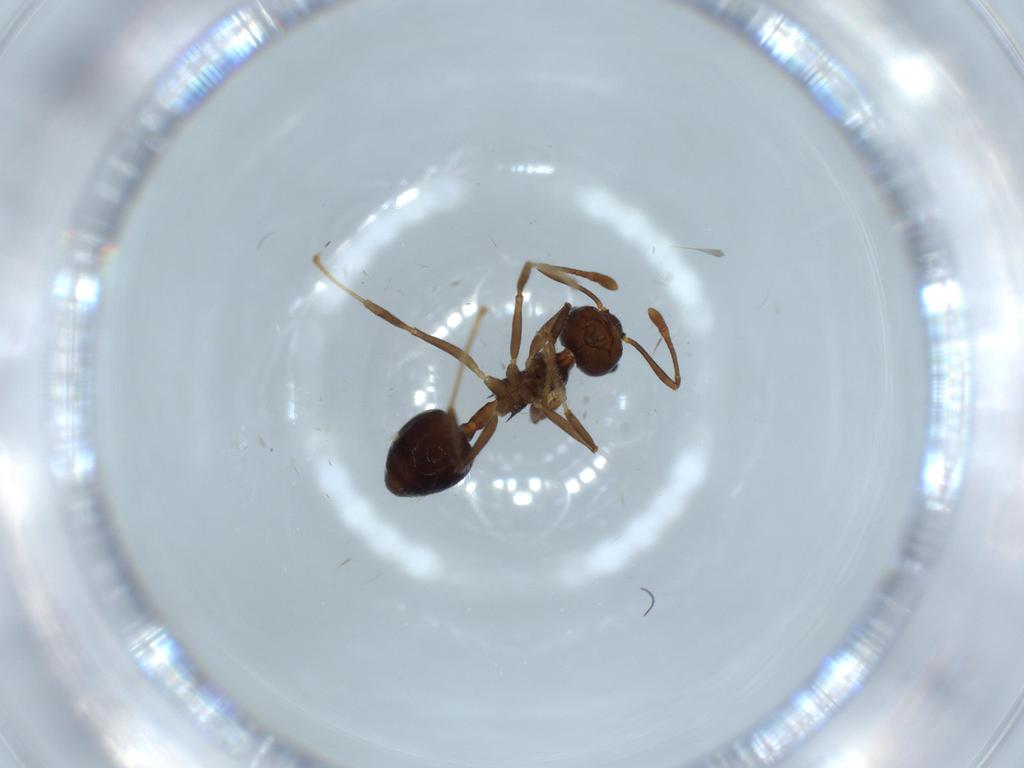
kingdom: Animalia
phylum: Arthropoda
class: Insecta
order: Hymenoptera
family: Formicidae
